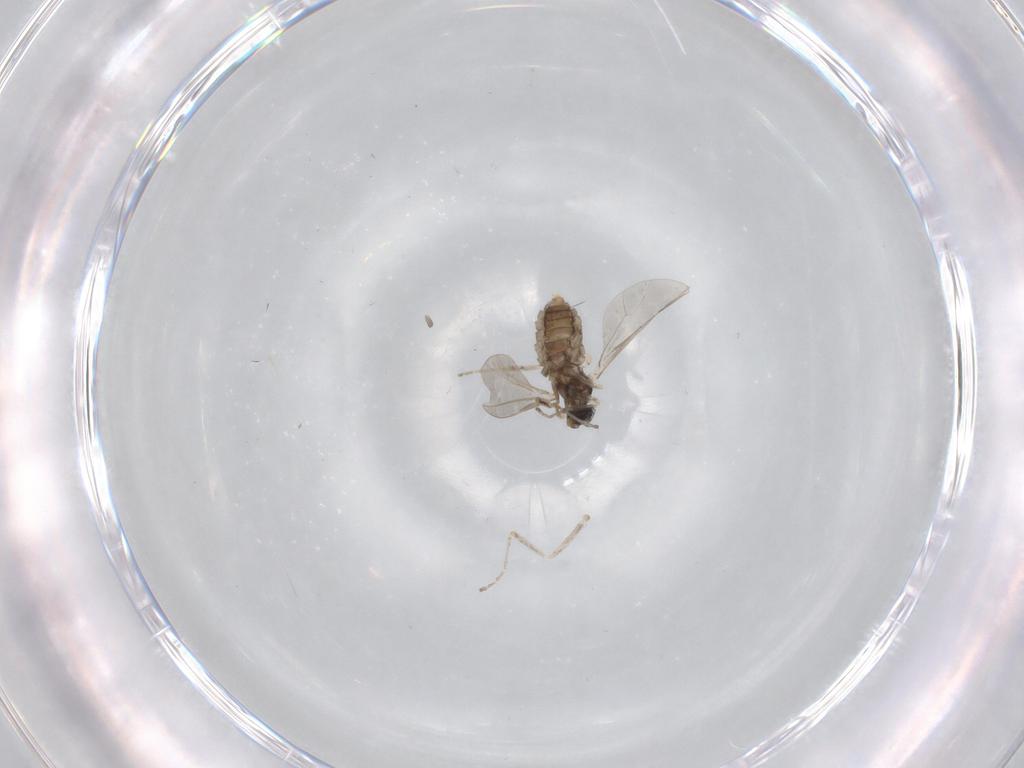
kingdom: Animalia
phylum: Arthropoda
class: Insecta
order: Diptera
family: Cecidomyiidae
